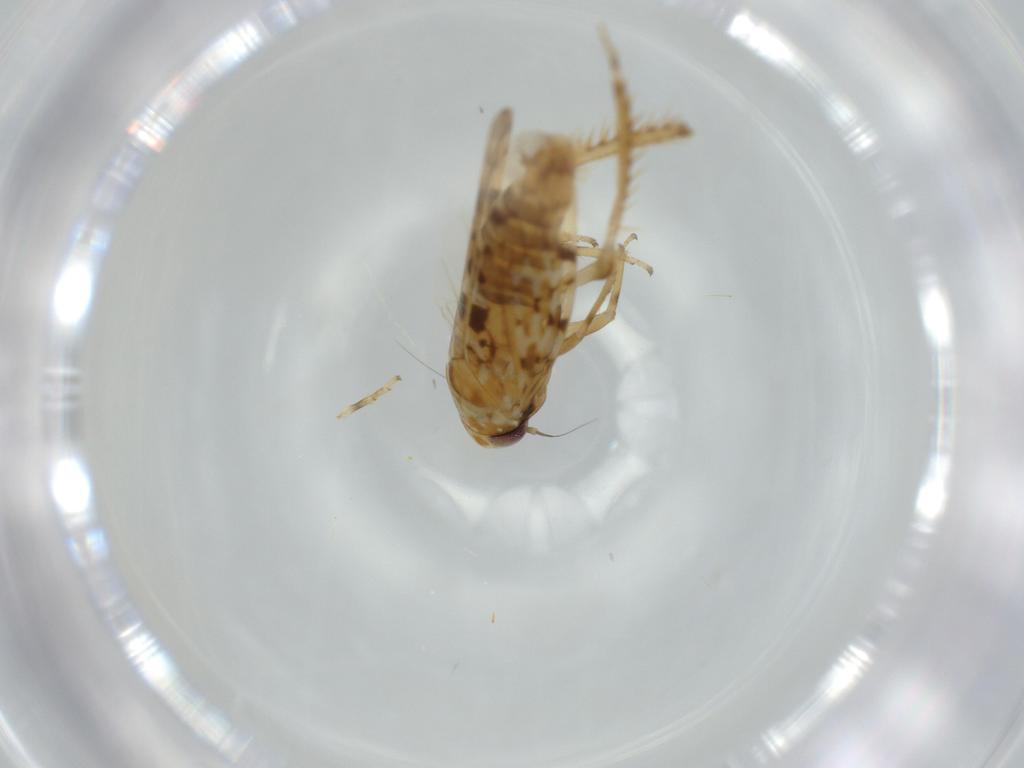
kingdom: Animalia
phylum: Arthropoda
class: Insecta
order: Hemiptera
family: Cicadellidae
